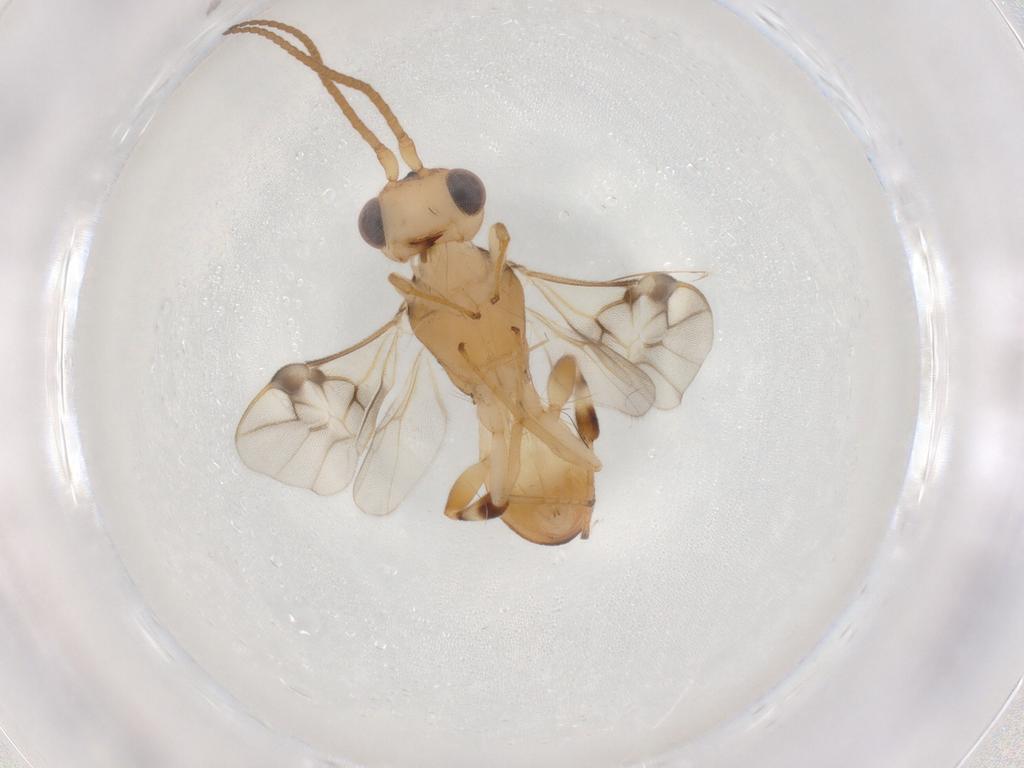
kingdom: Animalia
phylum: Arthropoda
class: Insecta
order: Hymenoptera
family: Braconidae
